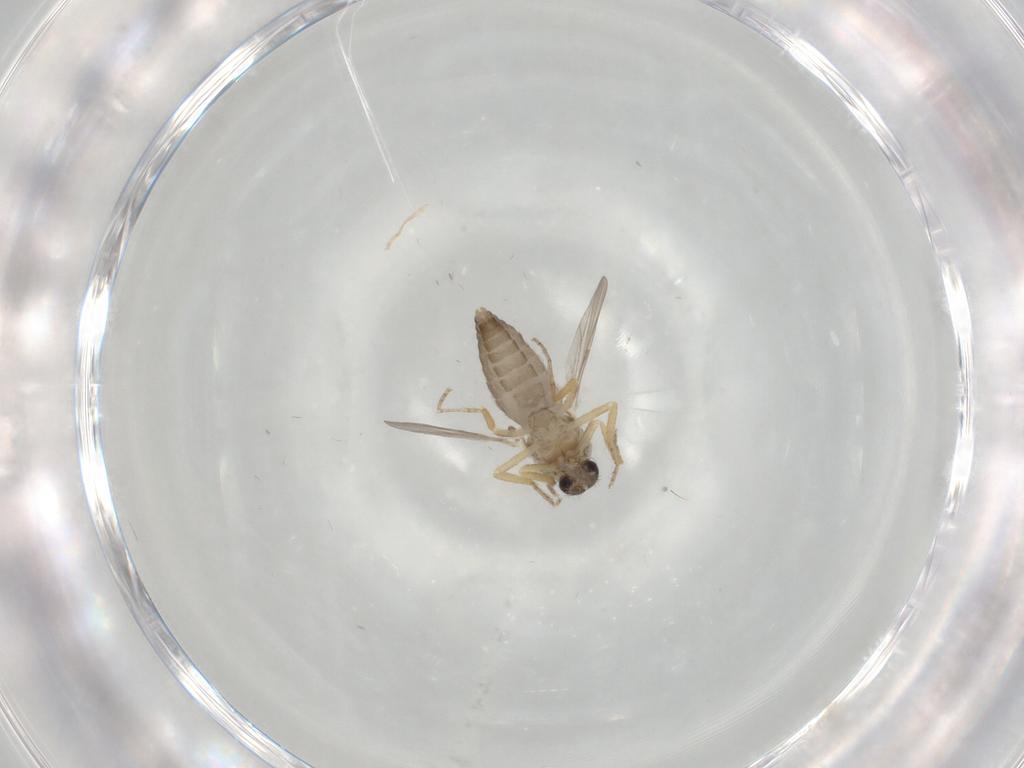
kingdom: Animalia
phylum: Arthropoda
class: Insecta
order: Diptera
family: Ceratopogonidae
